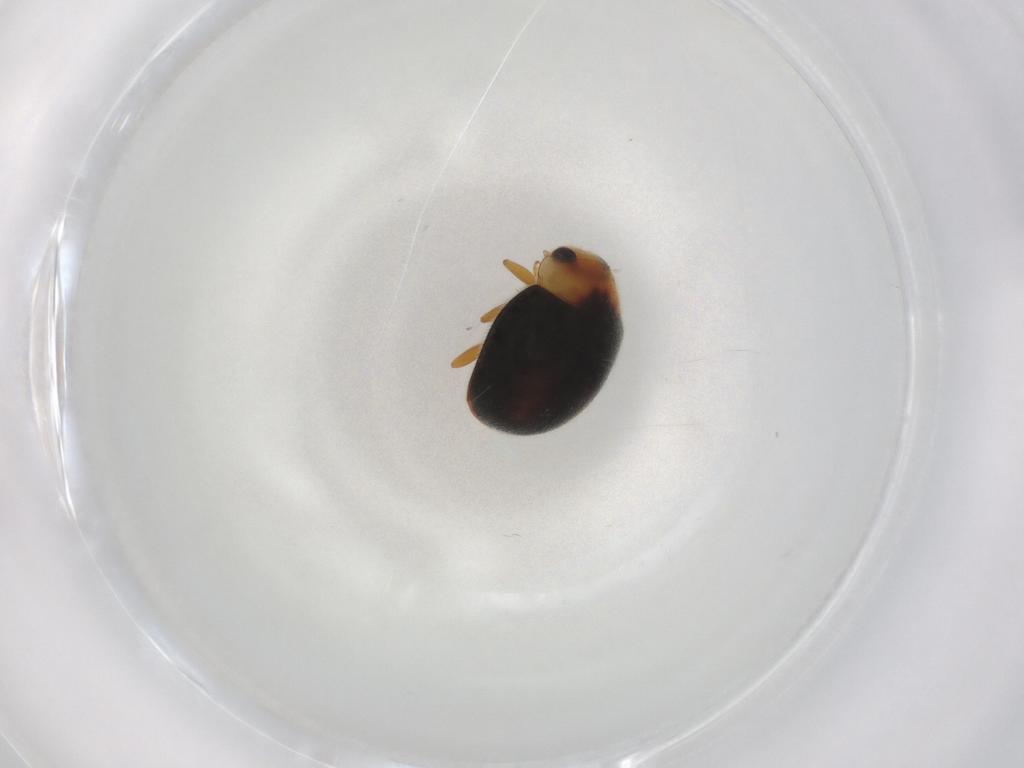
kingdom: Animalia
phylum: Arthropoda
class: Insecta
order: Coleoptera
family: Coccinellidae
